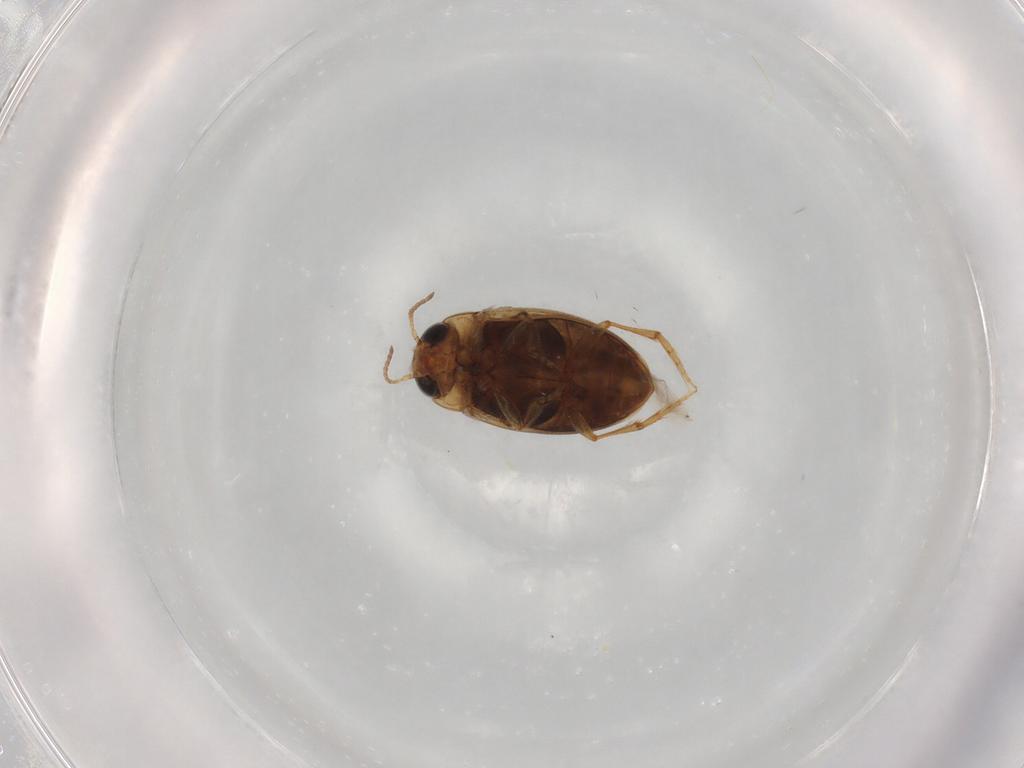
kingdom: Animalia
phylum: Arthropoda
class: Insecta
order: Coleoptera
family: Dytiscidae
